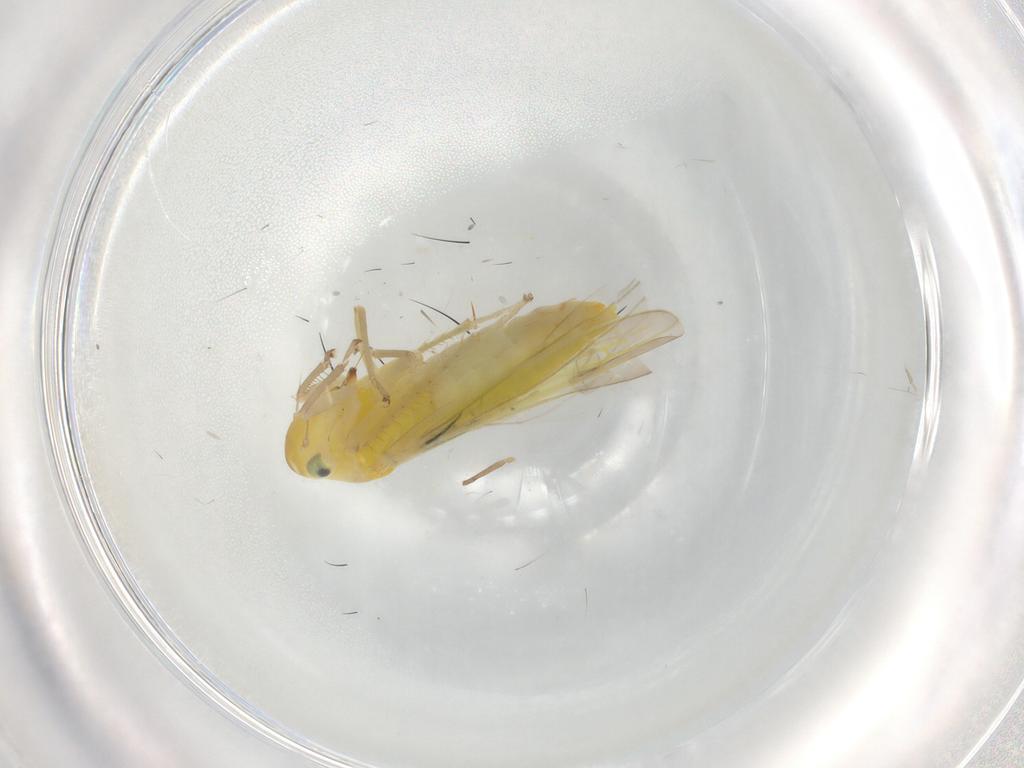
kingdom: Animalia
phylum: Arthropoda
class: Insecta
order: Hemiptera
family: Cicadellidae
